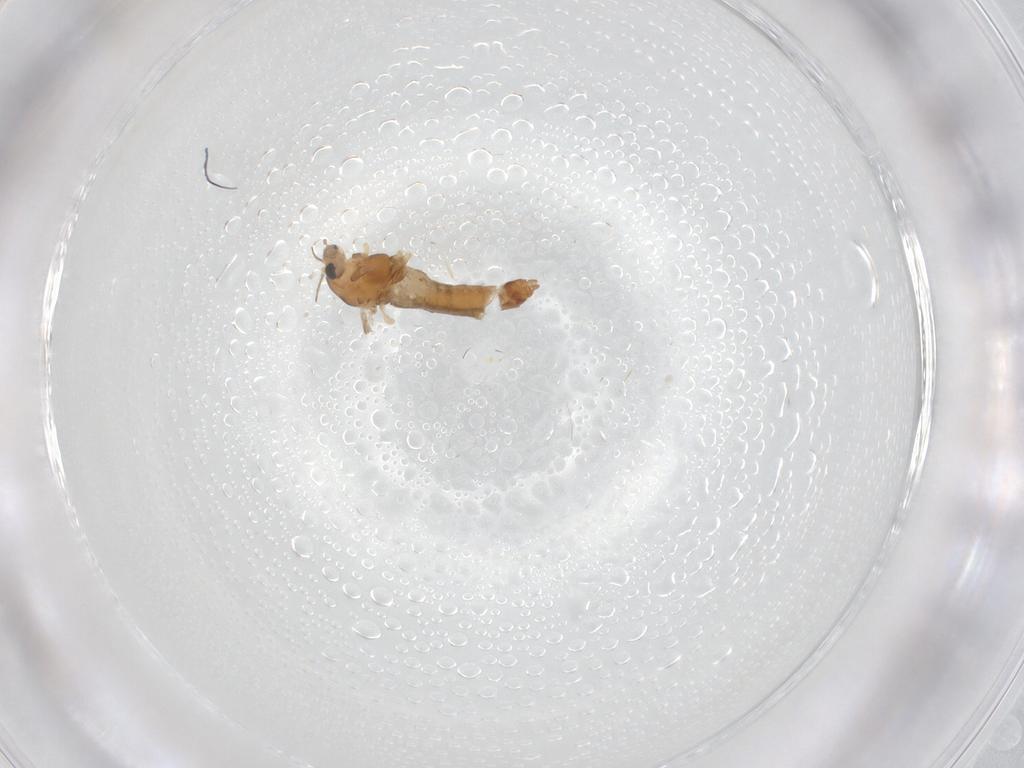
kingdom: Animalia
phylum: Arthropoda
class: Insecta
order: Diptera
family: Chironomidae
